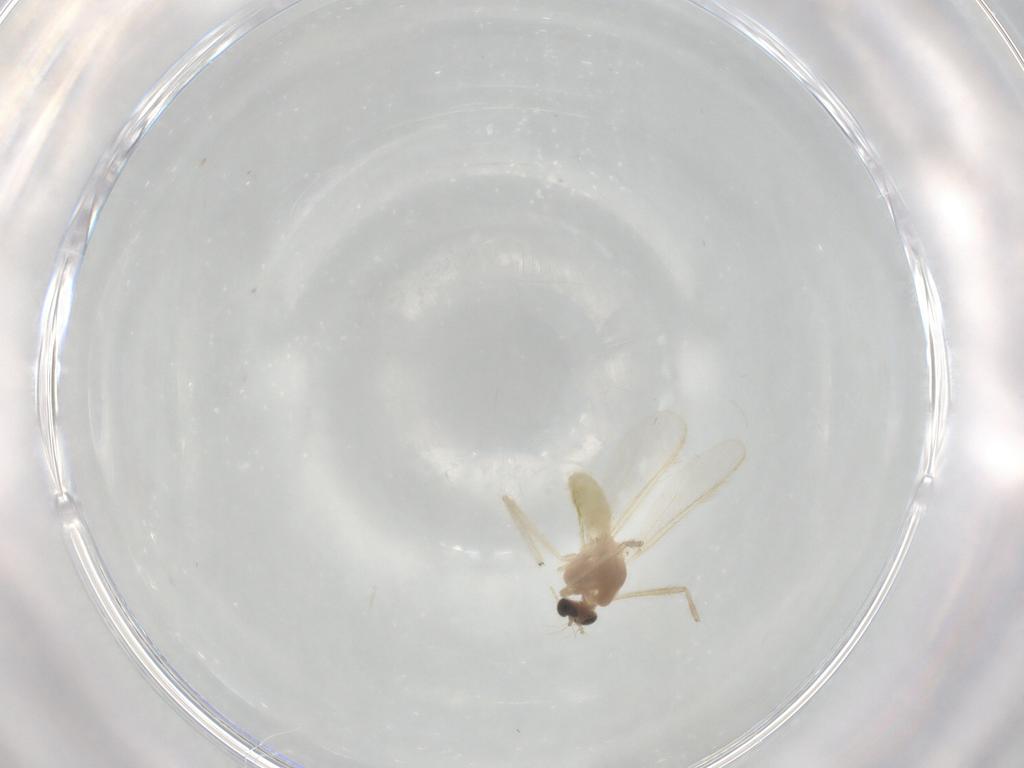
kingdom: Animalia
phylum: Arthropoda
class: Insecta
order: Diptera
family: Chironomidae
